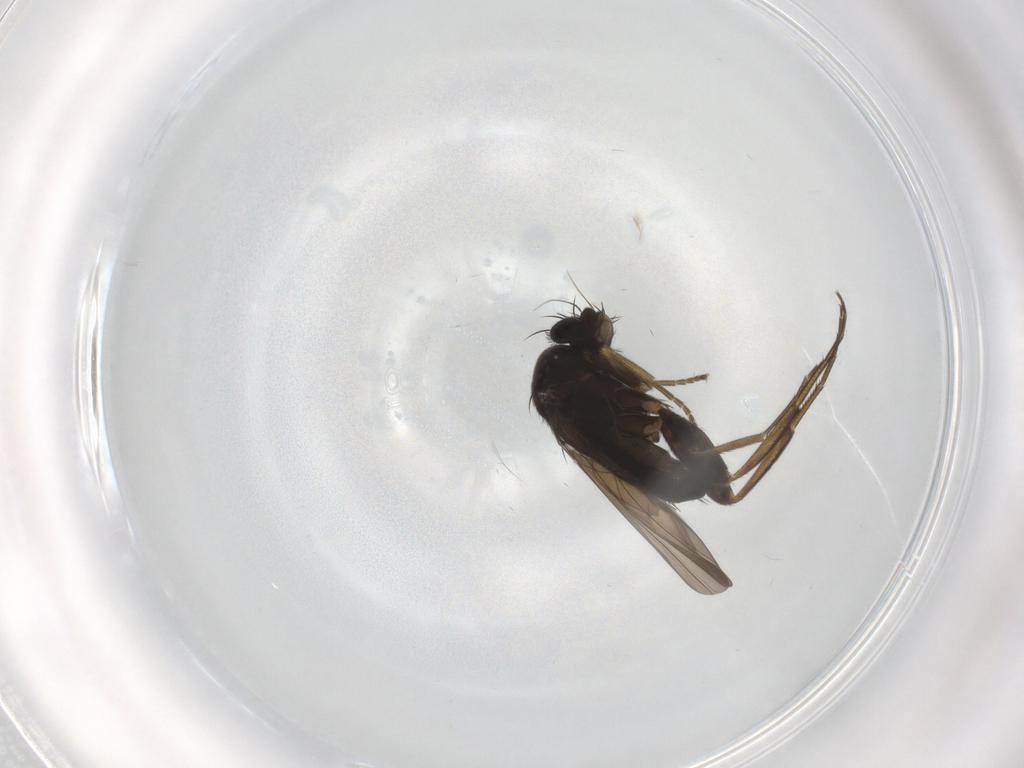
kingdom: Animalia
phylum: Arthropoda
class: Insecta
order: Diptera
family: Phoridae
